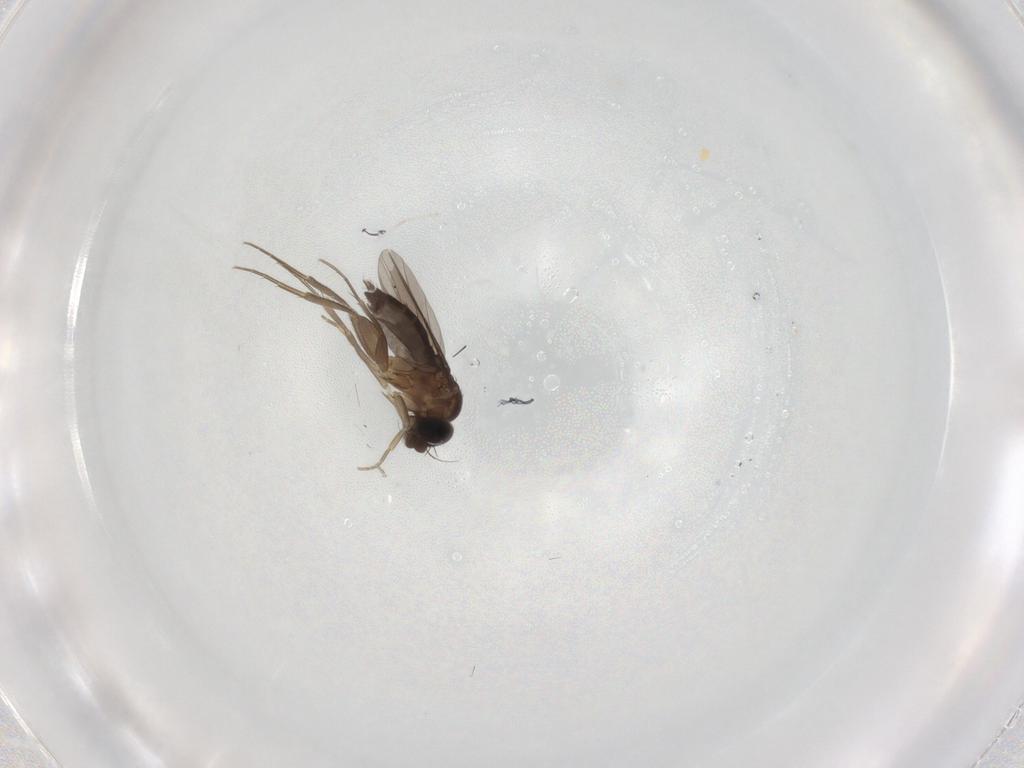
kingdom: Animalia
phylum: Arthropoda
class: Insecta
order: Diptera
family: Phoridae
